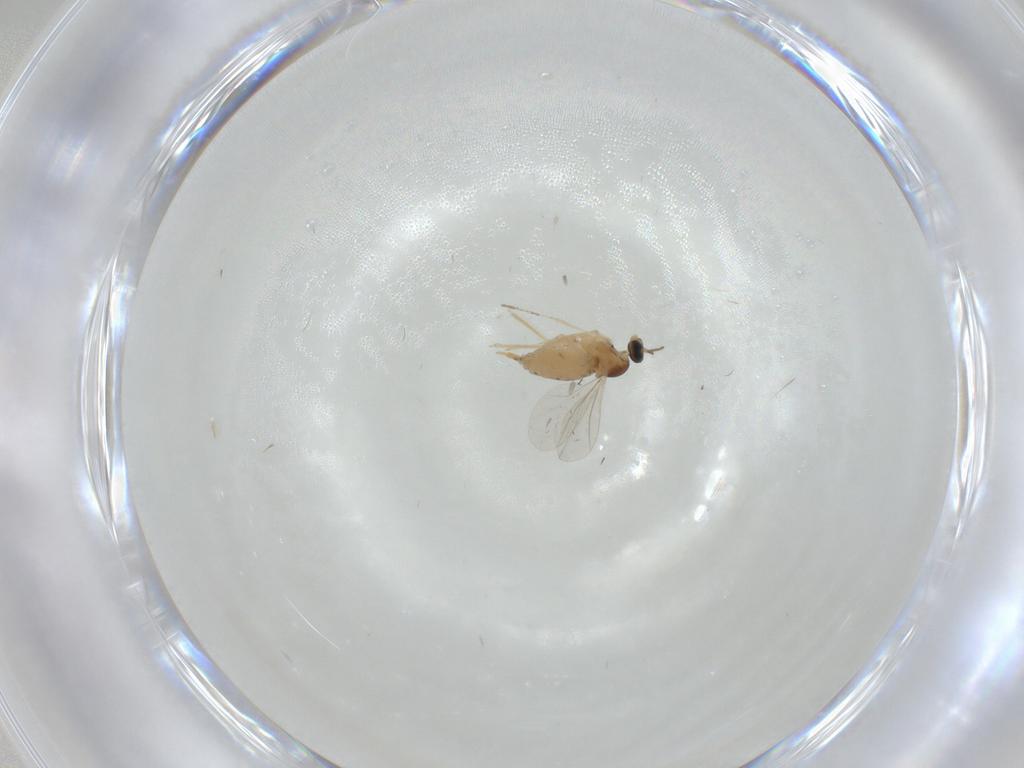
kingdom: Animalia
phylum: Arthropoda
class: Insecta
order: Diptera
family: Cecidomyiidae
